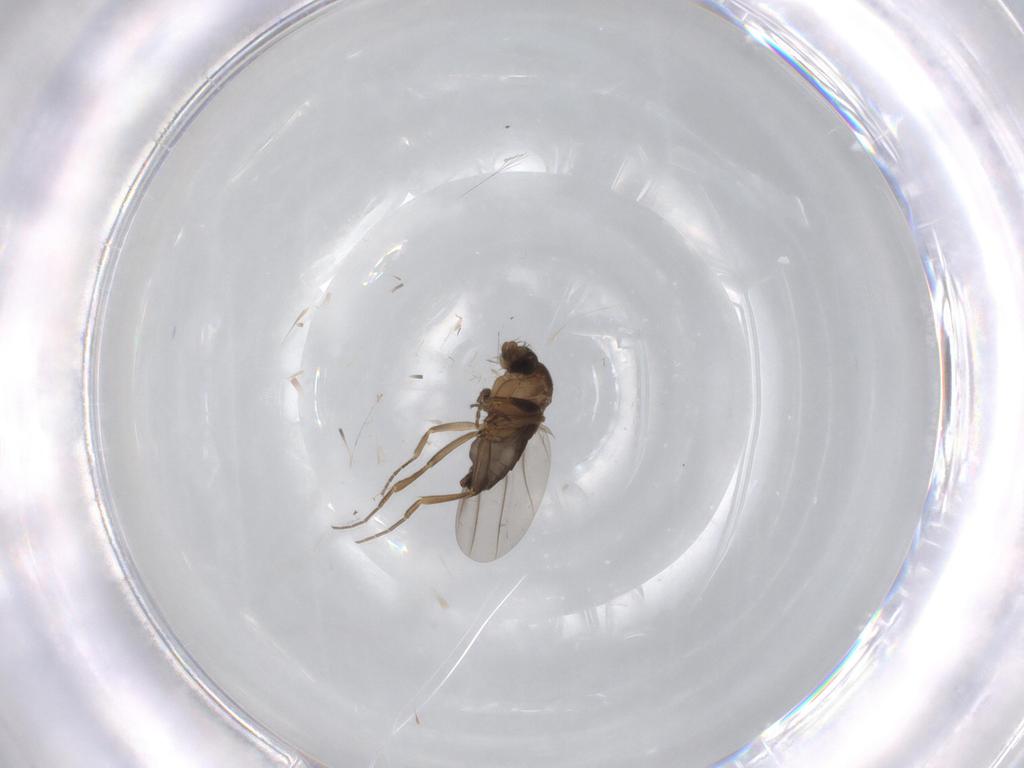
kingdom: Animalia
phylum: Arthropoda
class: Insecta
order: Diptera
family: Phoridae
